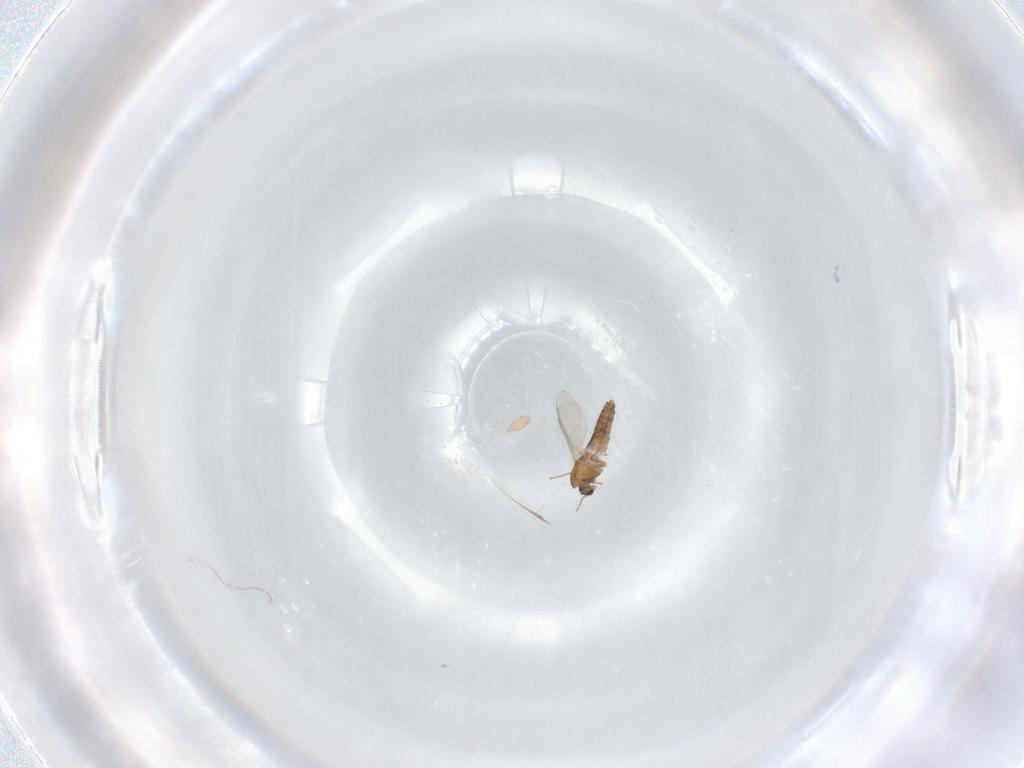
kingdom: Animalia
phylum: Arthropoda
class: Insecta
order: Diptera
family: Chironomidae
